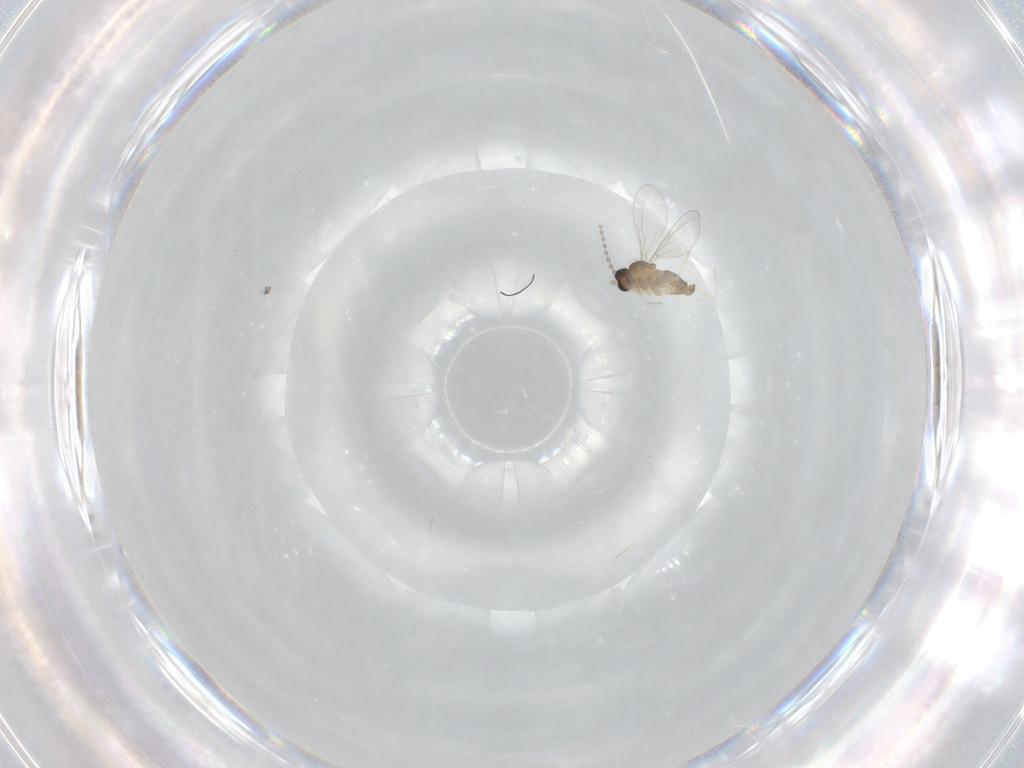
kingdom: Animalia
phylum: Arthropoda
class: Insecta
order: Diptera
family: Cecidomyiidae
